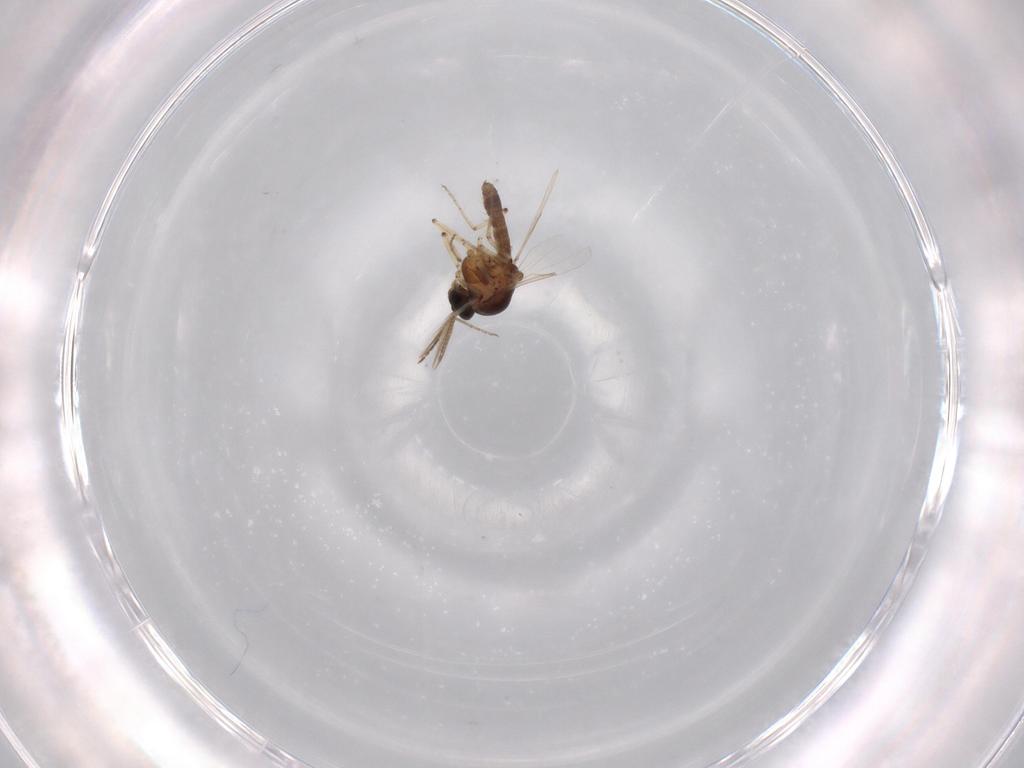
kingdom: Animalia
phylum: Arthropoda
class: Insecta
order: Diptera
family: Ceratopogonidae
